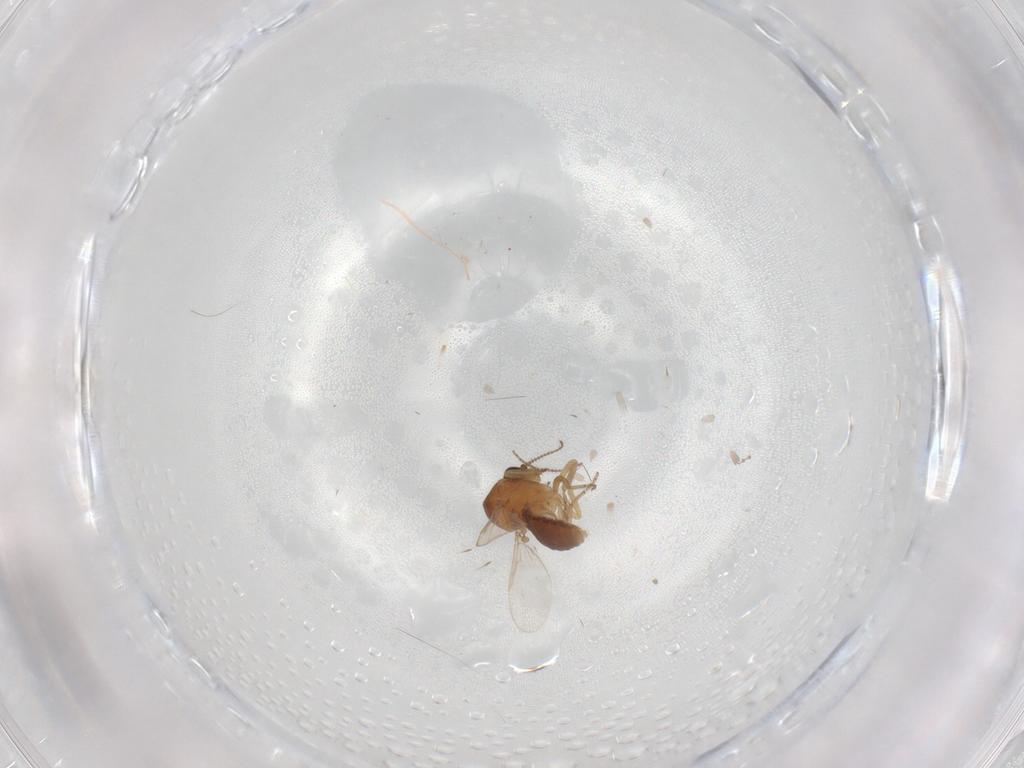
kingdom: Animalia
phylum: Arthropoda
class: Insecta
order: Diptera
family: Ceratopogonidae
